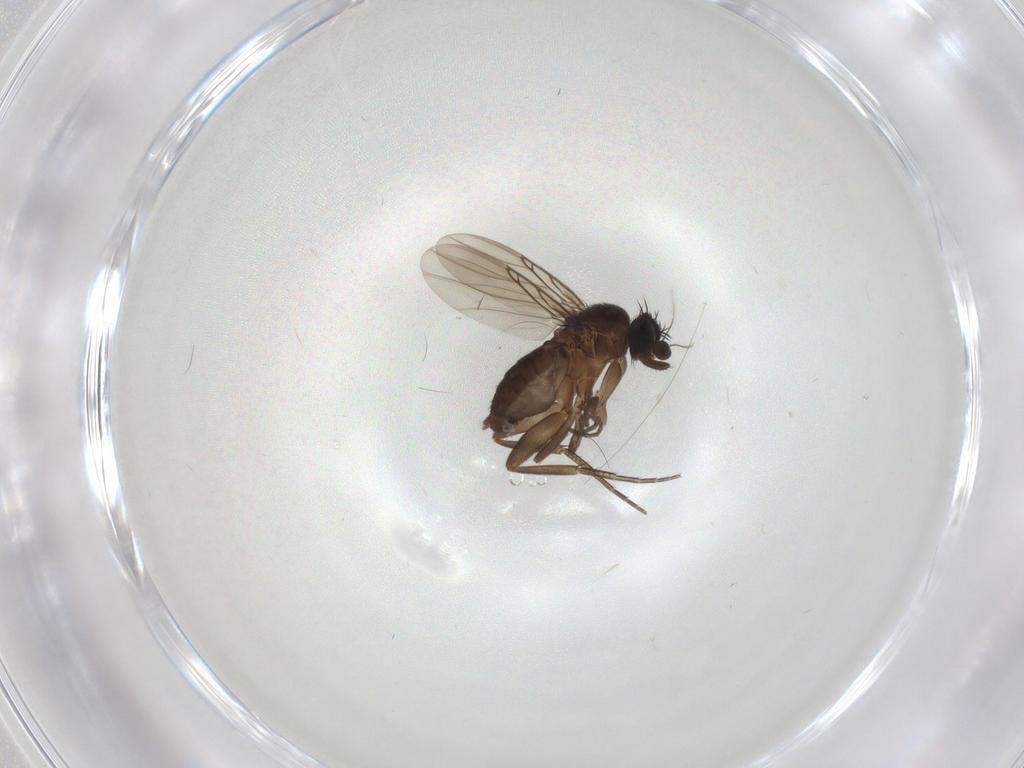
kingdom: Animalia
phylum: Arthropoda
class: Insecta
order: Diptera
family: Phoridae
